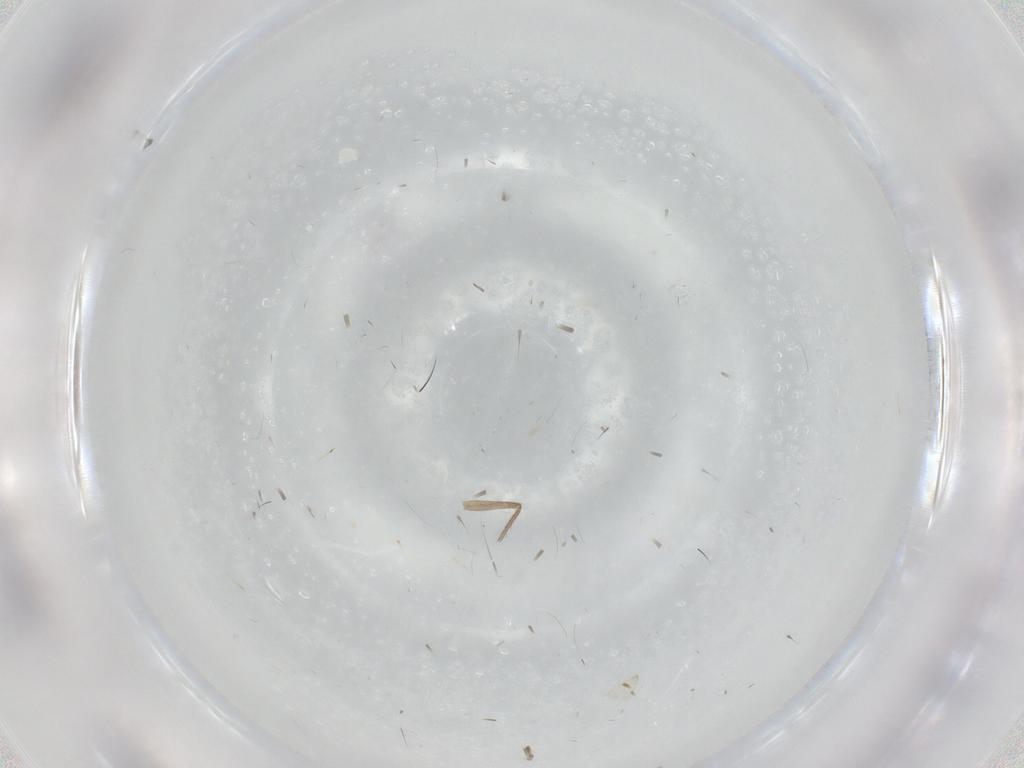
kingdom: Animalia
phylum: Arthropoda
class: Insecta
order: Diptera
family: Chironomidae
